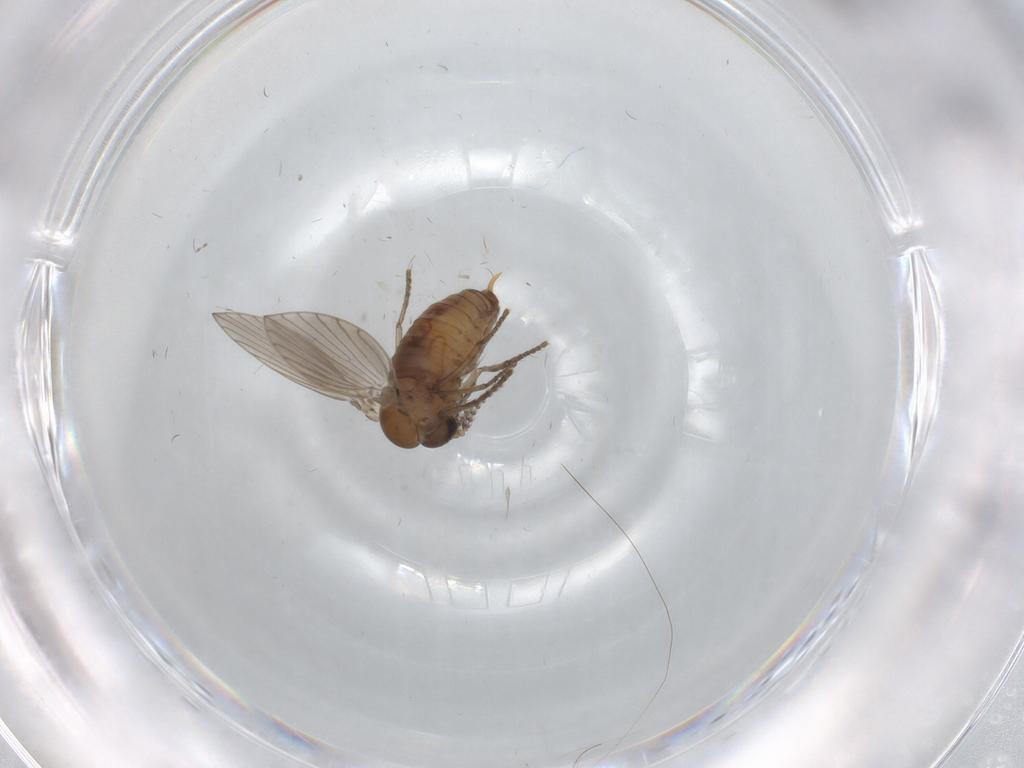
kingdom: Animalia
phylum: Arthropoda
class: Insecta
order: Diptera
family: Psychodidae
